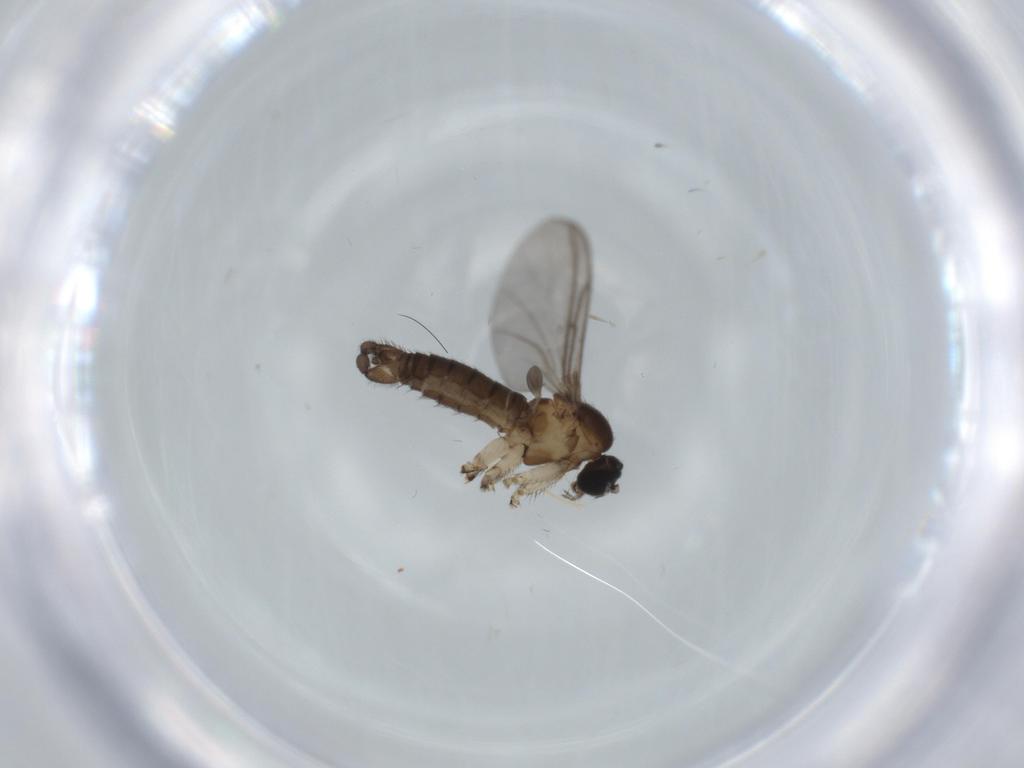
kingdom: Animalia
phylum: Arthropoda
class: Insecta
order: Diptera
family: Sciaridae
